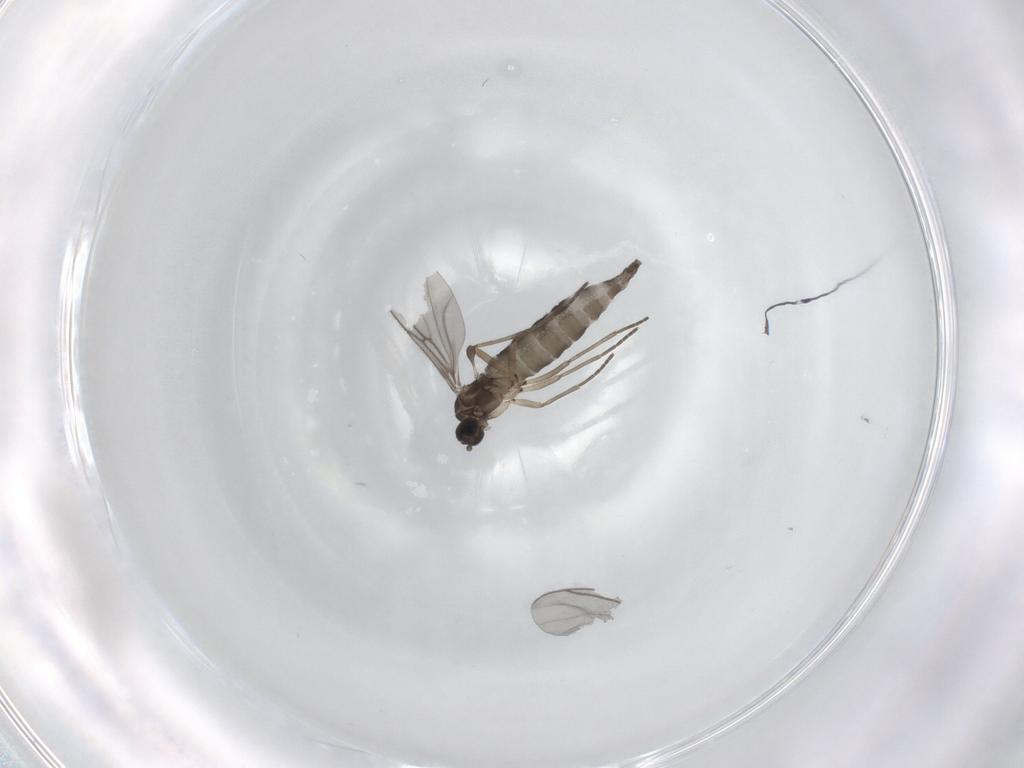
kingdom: Animalia
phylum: Arthropoda
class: Insecta
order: Diptera
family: Sciaridae
